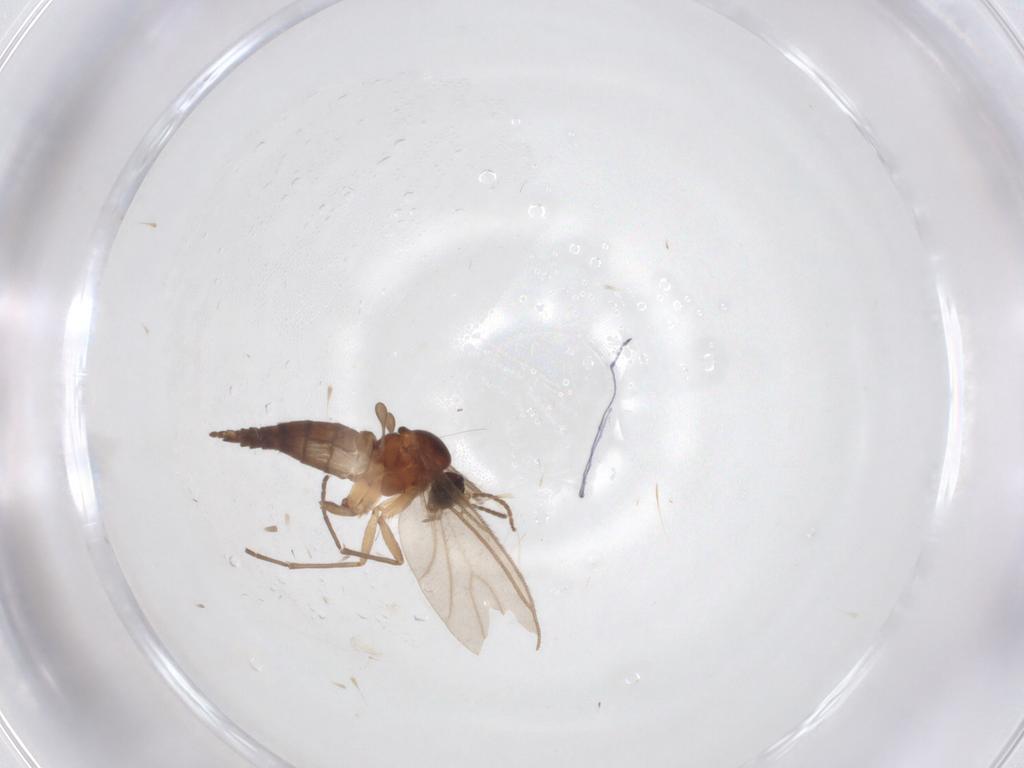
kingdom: Animalia
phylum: Arthropoda
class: Insecta
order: Diptera
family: Sciaridae
